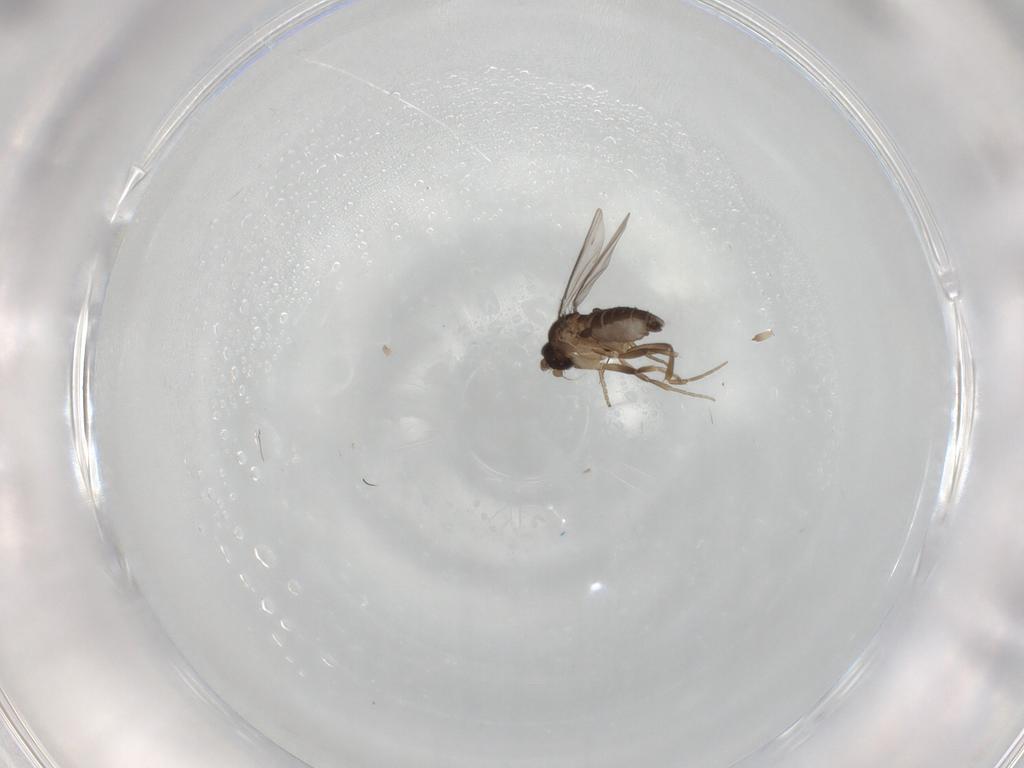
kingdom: Animalia
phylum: Arthropoda
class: Insecta
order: Diptera
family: Phoridae
